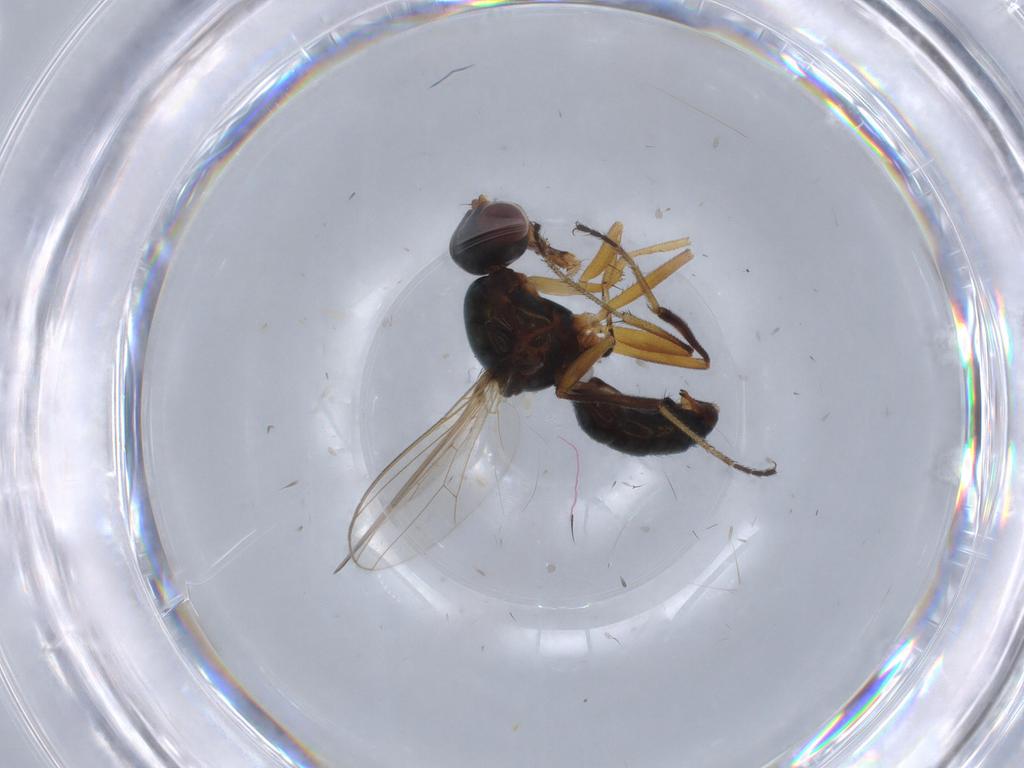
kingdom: Animalia
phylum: Arthropoda
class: Insecta
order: Diptera
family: Sepsidae
